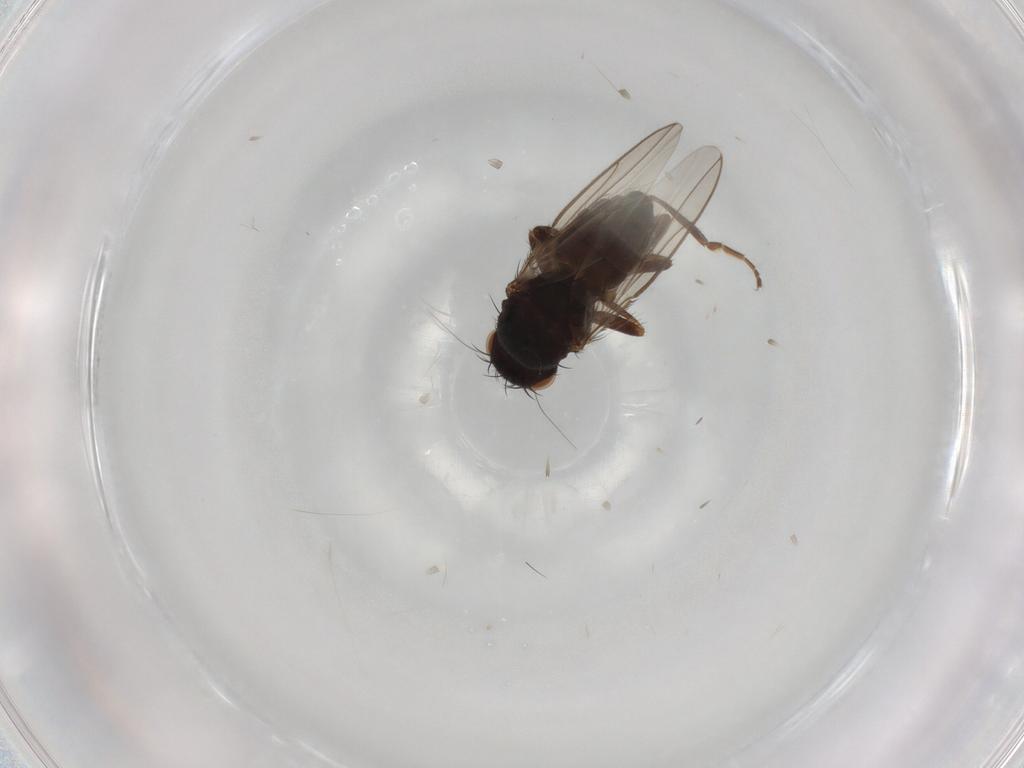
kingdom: Animalia
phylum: Arthropoda
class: Insecta
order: Diptera
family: Sphaeroceridae
